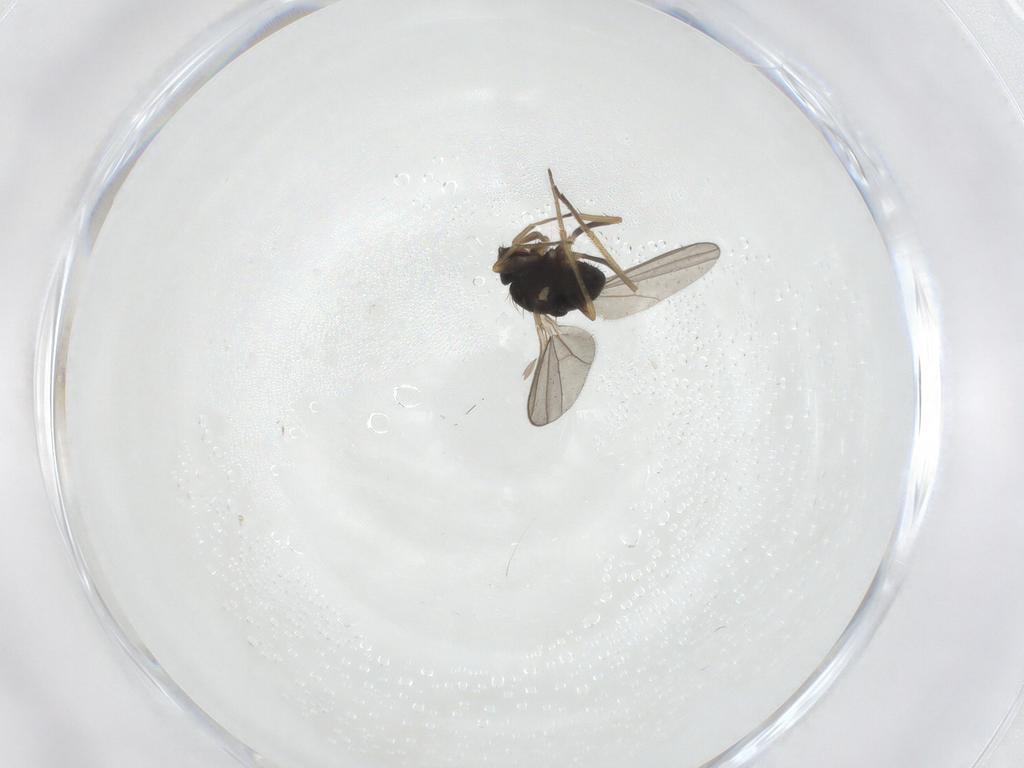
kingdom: Animalia
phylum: Arthropoda
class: Insecta
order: Diptera
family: Dolichopodidae
